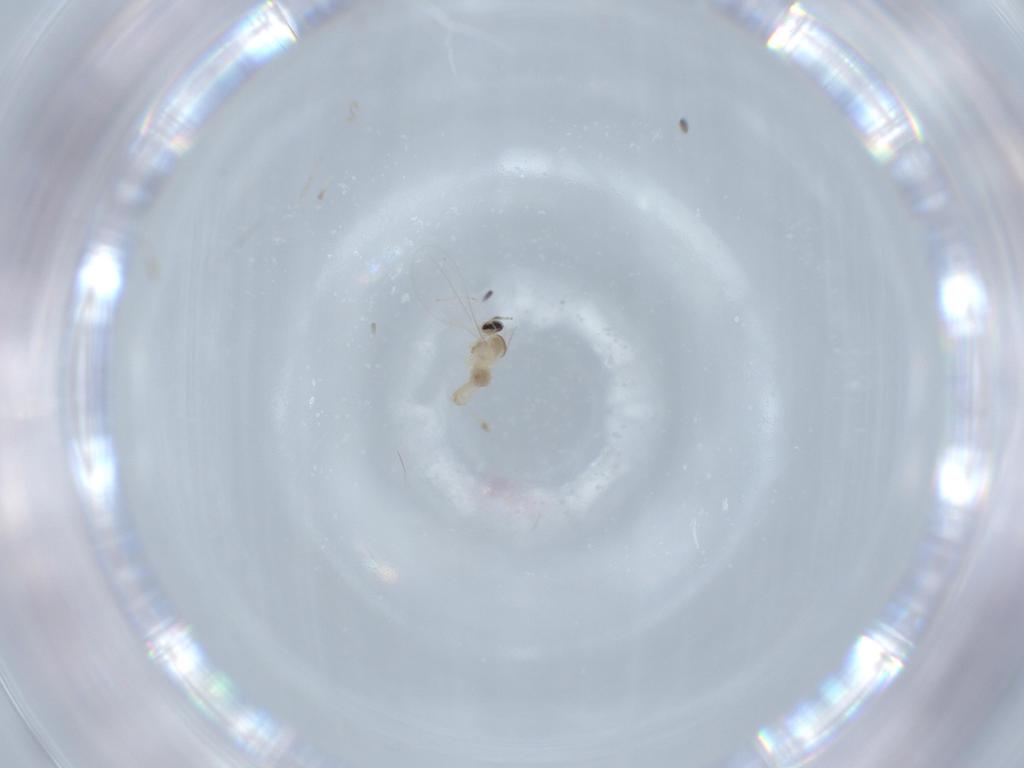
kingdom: Animalia
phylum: Arthropoda
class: Insecta
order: Diptera
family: Cecidomyiidae
